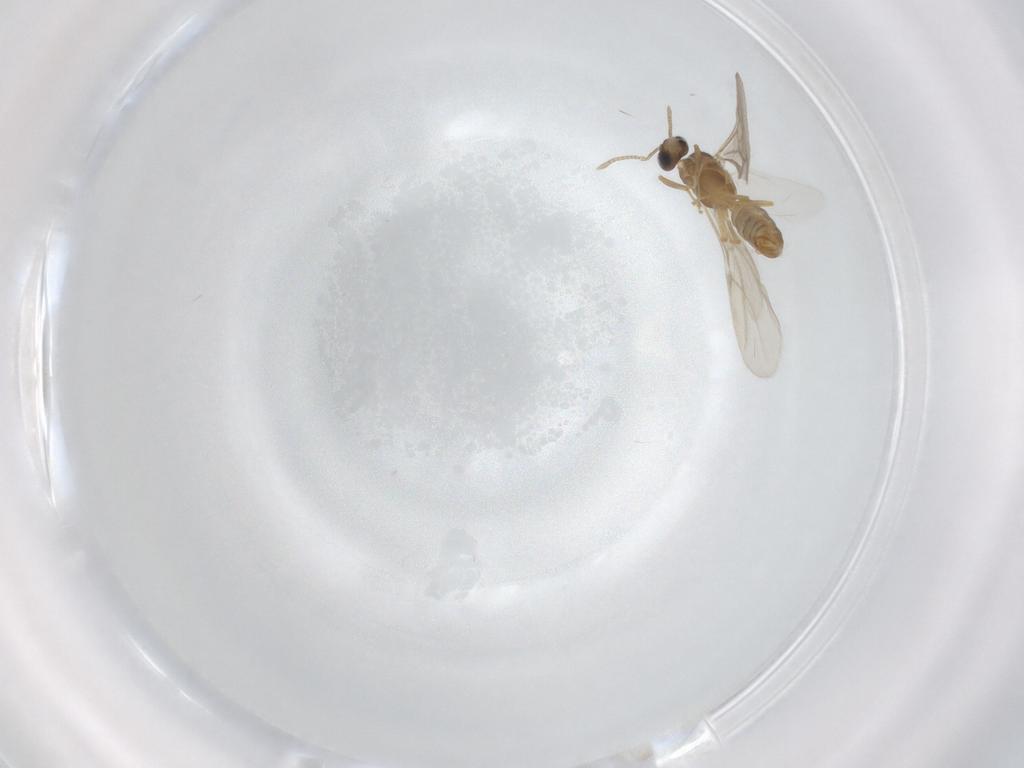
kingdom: Animalia
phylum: Arthropoda
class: Insecta
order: Hymenoptera
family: Formicidae
